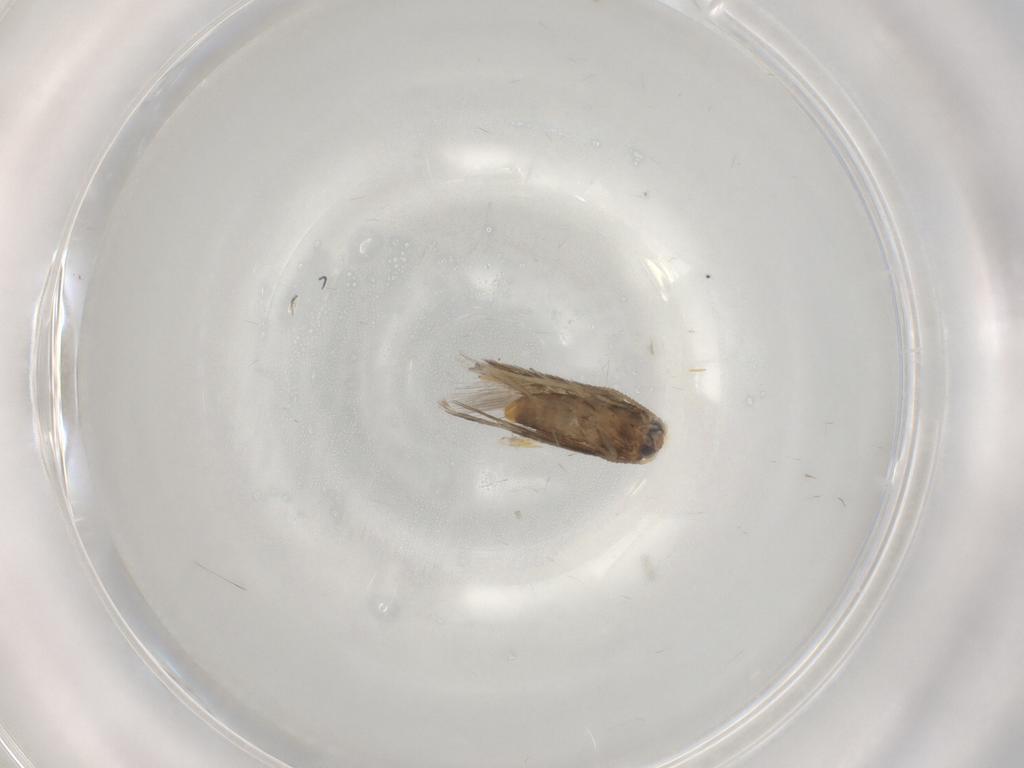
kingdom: Animalia
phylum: Arthropoda
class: Insecta
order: Lepidoptera
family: Nepticulidae
